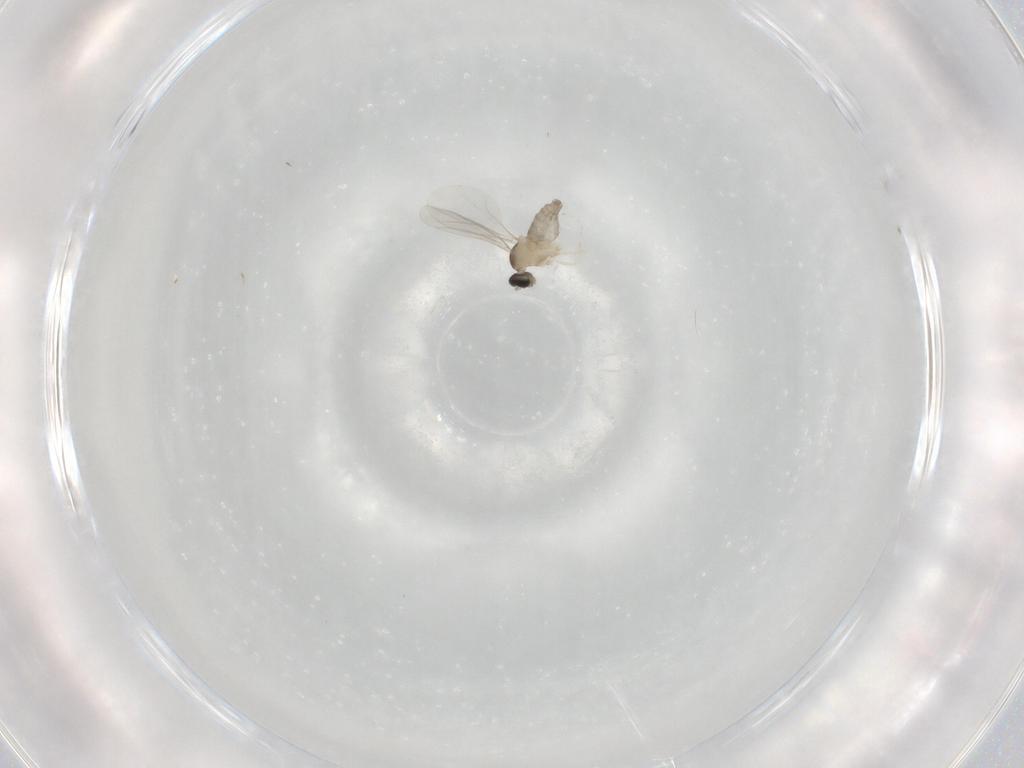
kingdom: Animalia
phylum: Arthropoda
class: Insecta
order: Diptera
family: Cecidomyiidae
